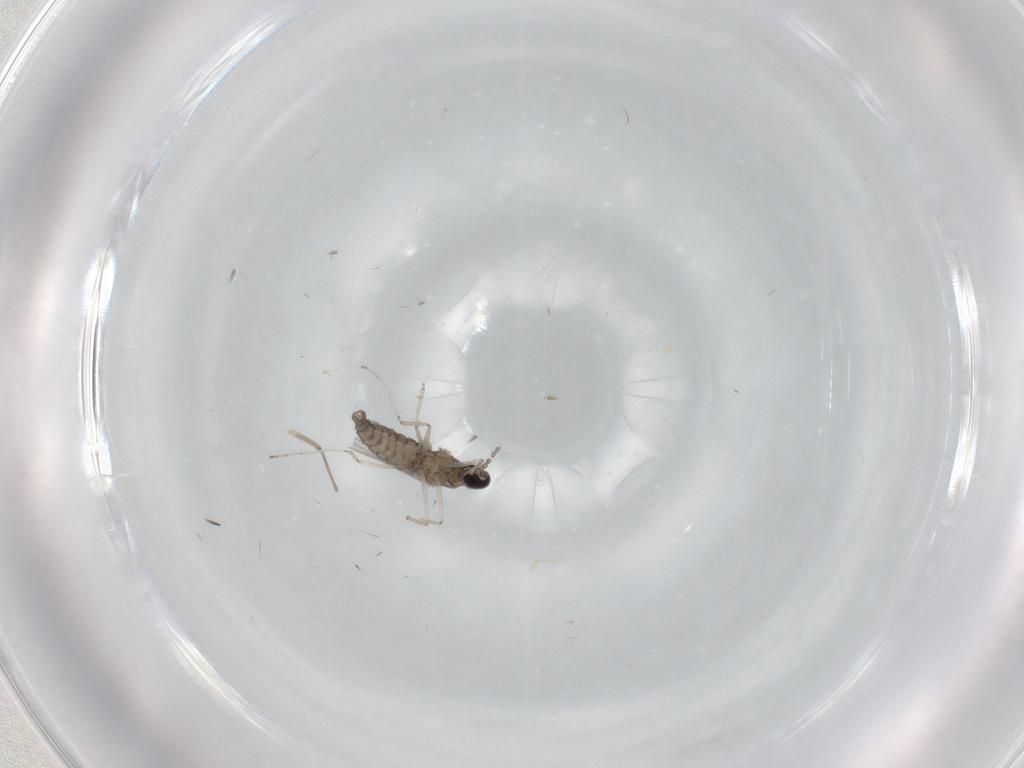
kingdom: Animalia
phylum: Arthropoda
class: Insecta
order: Diptera
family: Cecidomyiidae
